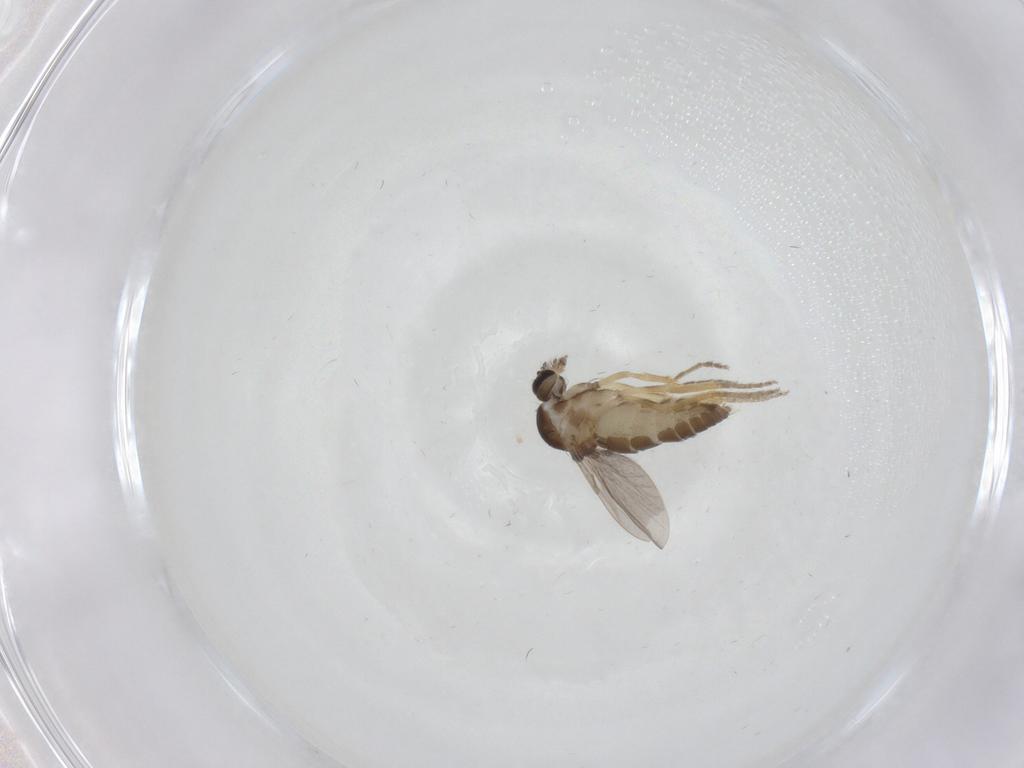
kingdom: Animalia
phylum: Arthropoda
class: Insecta
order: Diptera
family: Ceratopogonidae
